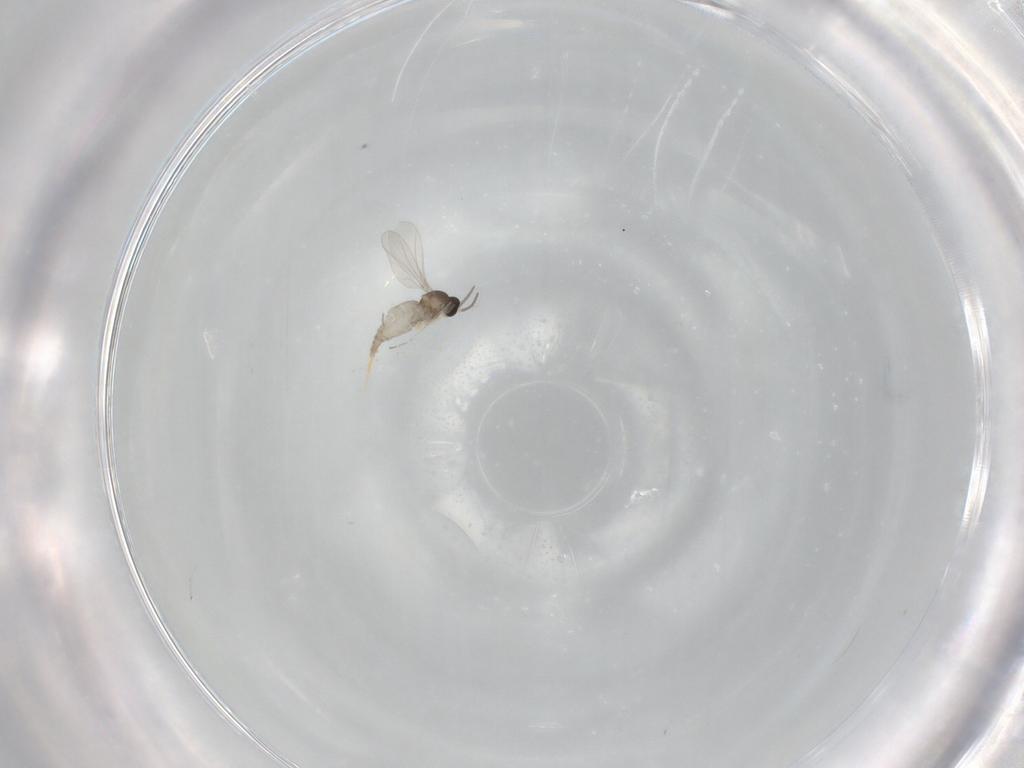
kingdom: Animalia
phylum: Arthropoda
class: Insecta
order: Diptera
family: Cecidomyiidae
